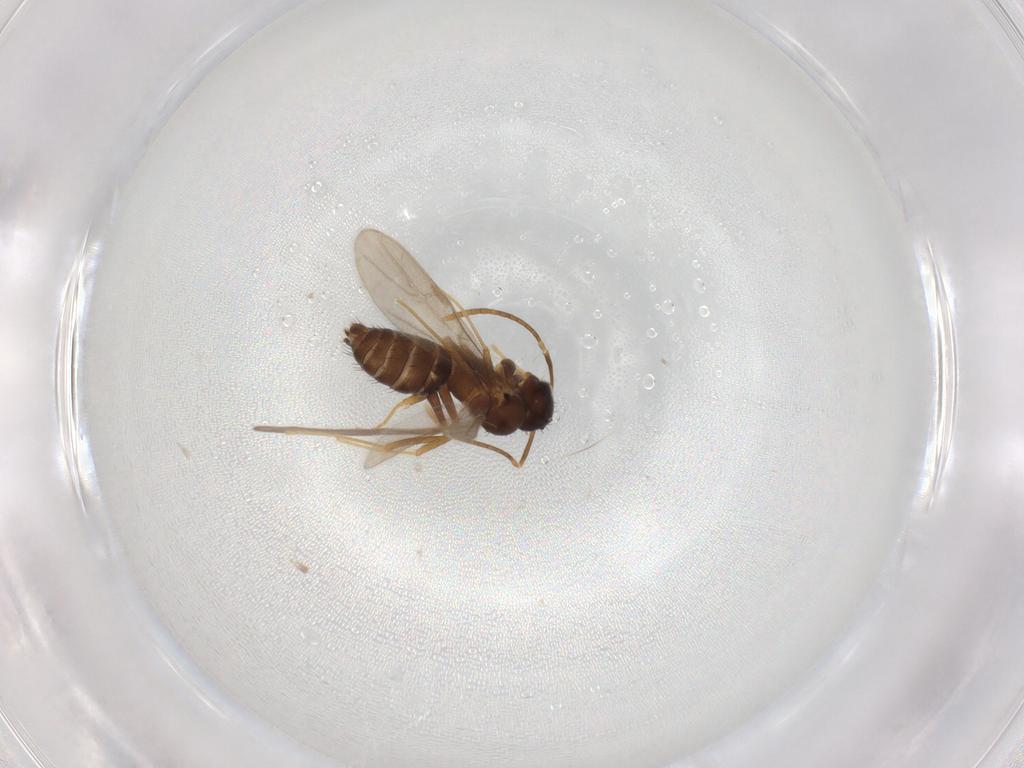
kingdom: Animalia
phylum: Arthropoda
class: Insecta
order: Hymenoptera
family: Formicidae
